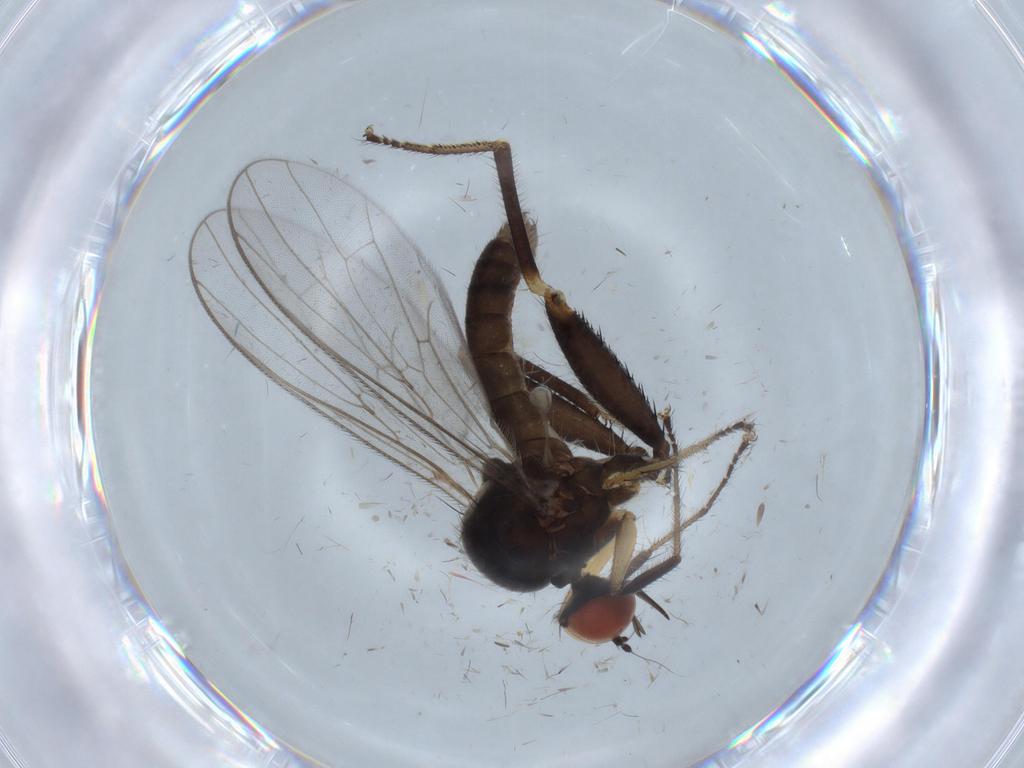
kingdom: Animalia
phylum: Arthropoda
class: Insecta
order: Diptera
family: Hybotidae
